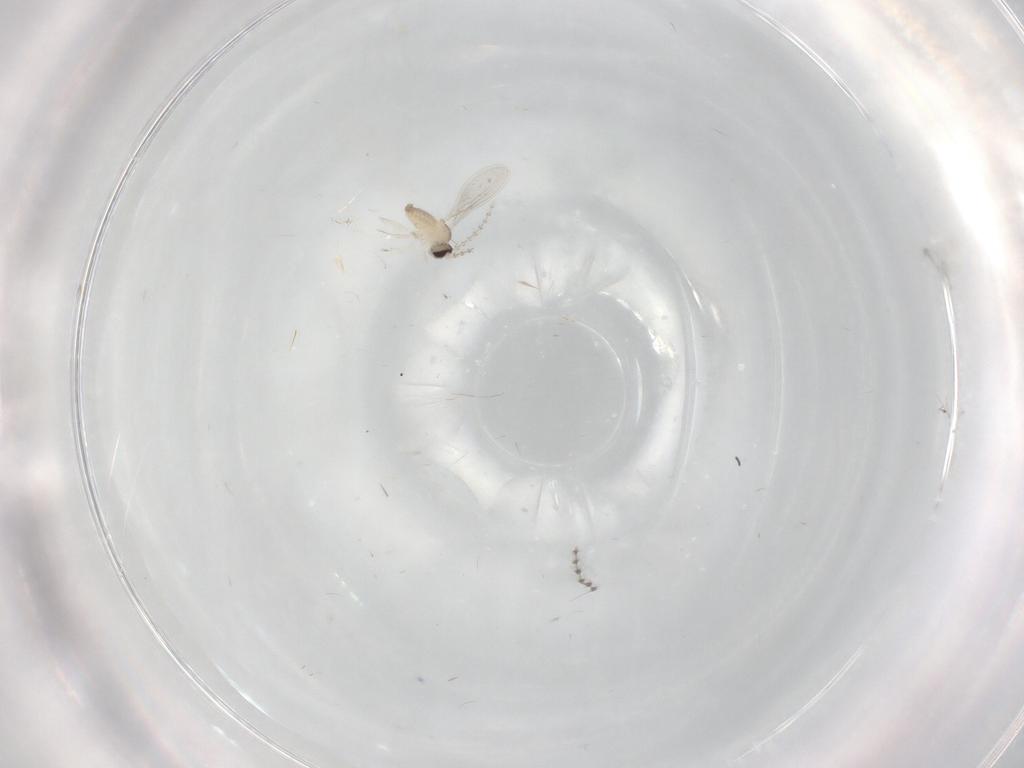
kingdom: Animalia
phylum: Arthropoda
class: Insecta
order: Diptera
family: Cecidomyiidae
